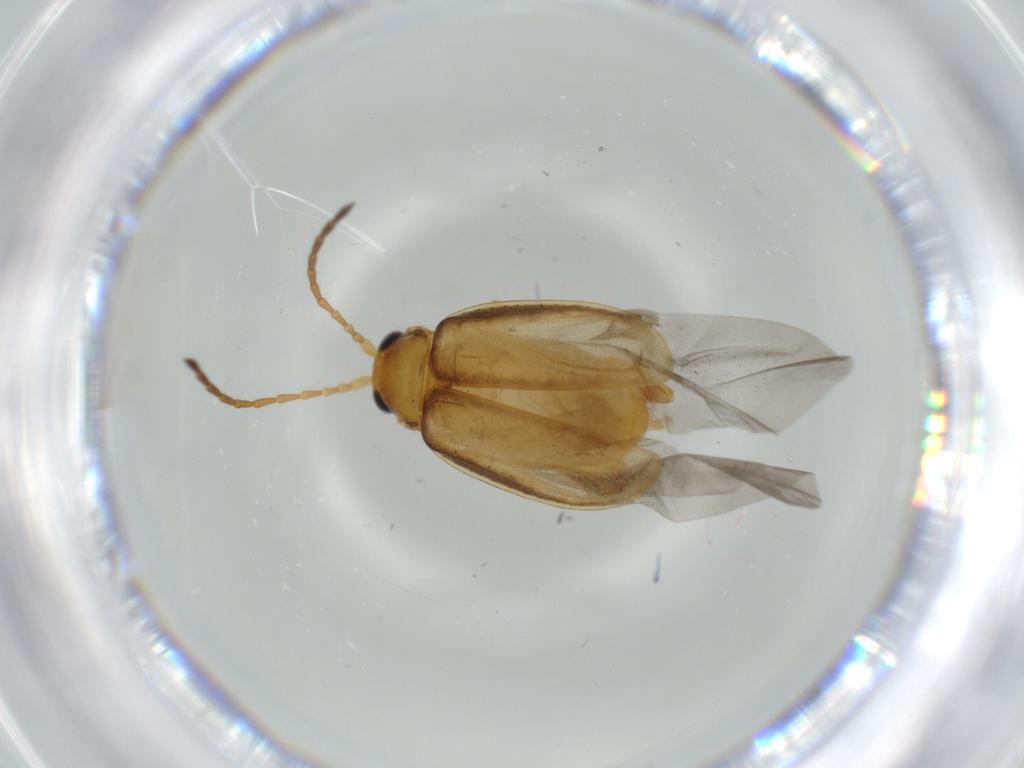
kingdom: Animalia
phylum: Arthropoda
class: Insecta
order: Coleoptera
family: Chrysomelidae
